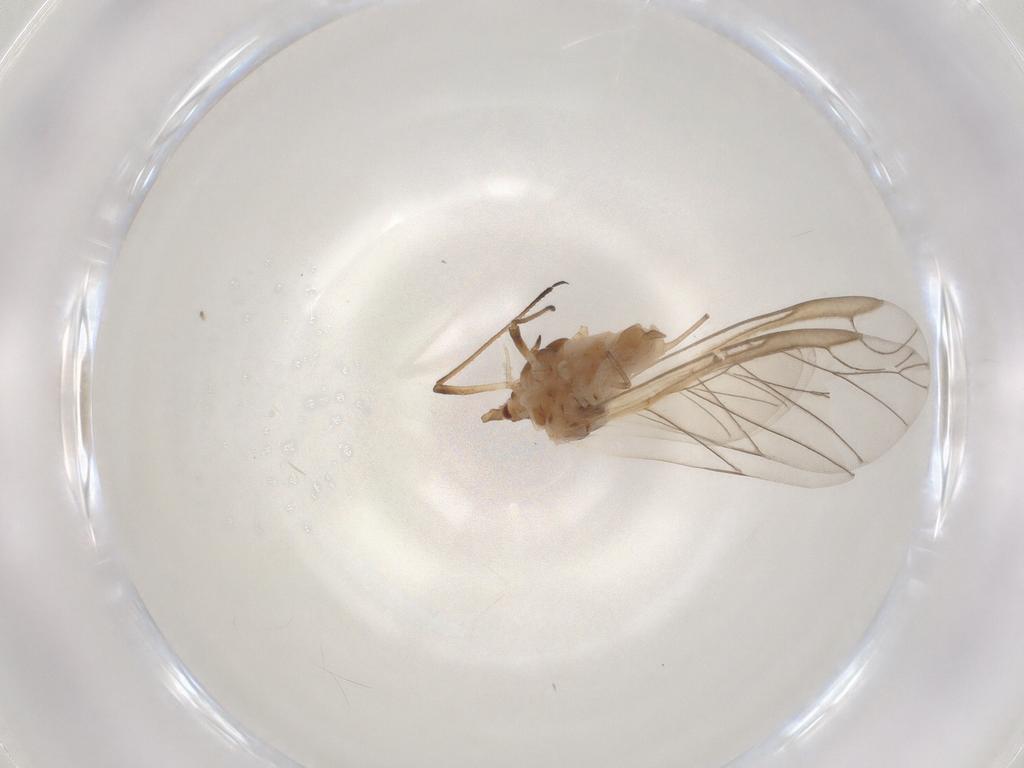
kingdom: Animalia
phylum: Arthropoda
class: Insecta
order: Hemiptera
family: Aphididae
